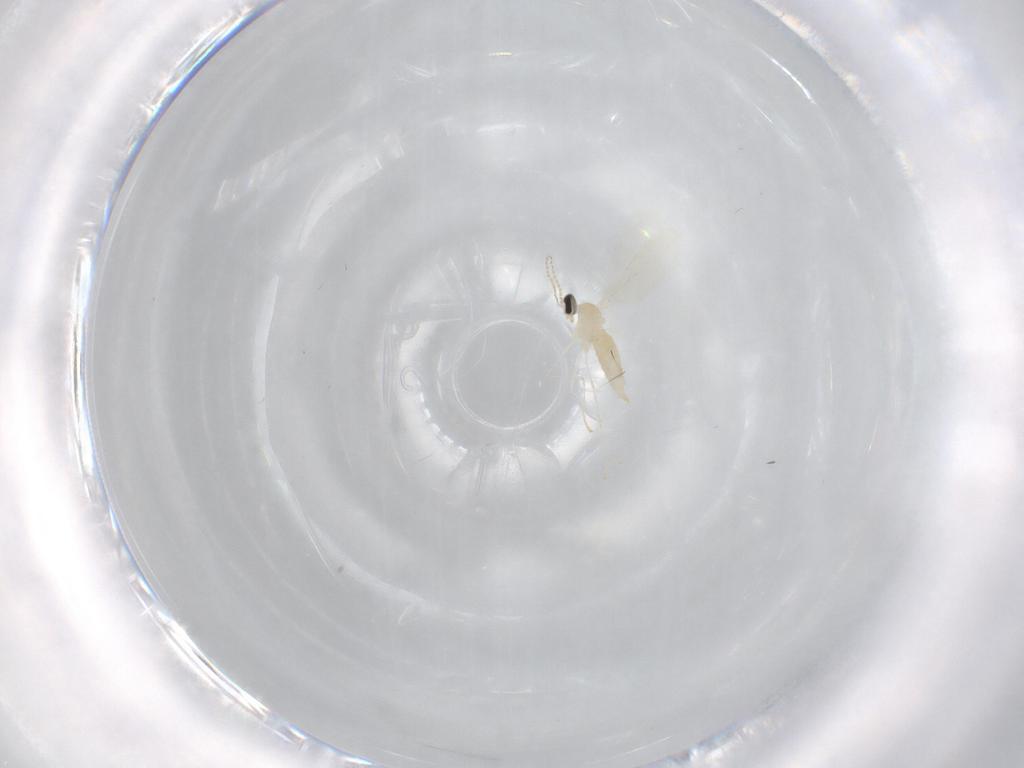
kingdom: Animalia
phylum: Arthropoda
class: Insecta
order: Diptera
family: Cecidomyiidae
